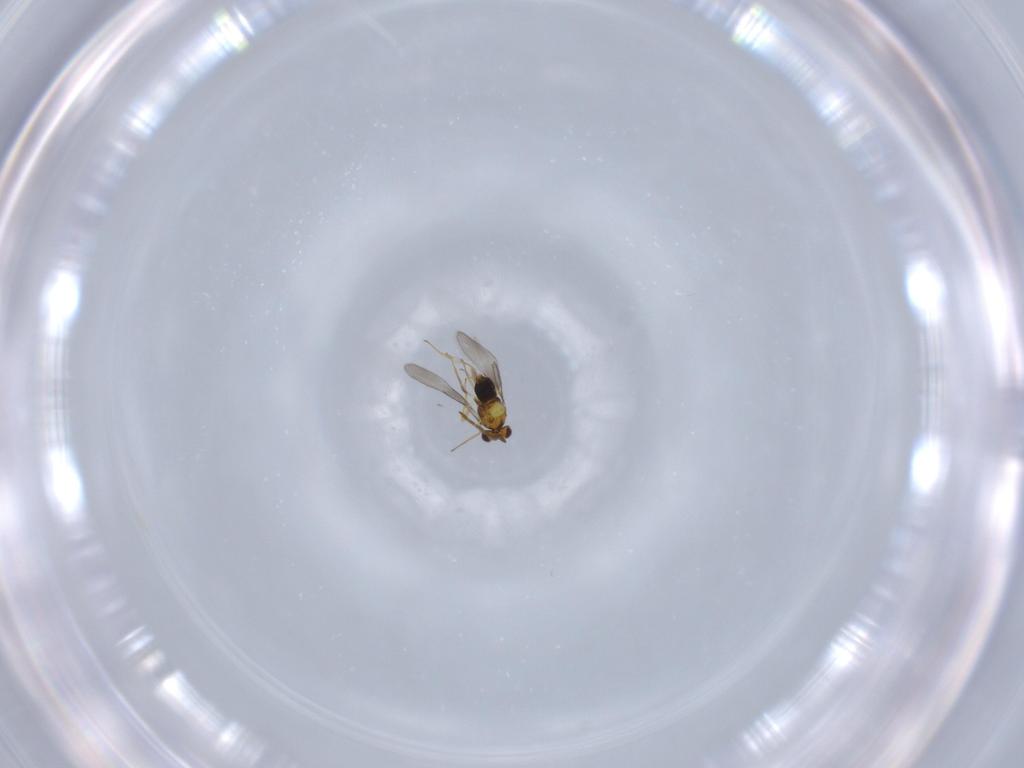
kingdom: Animalia
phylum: Arthropoda
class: Insecta
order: Hymenoptera
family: Aphelinidae
